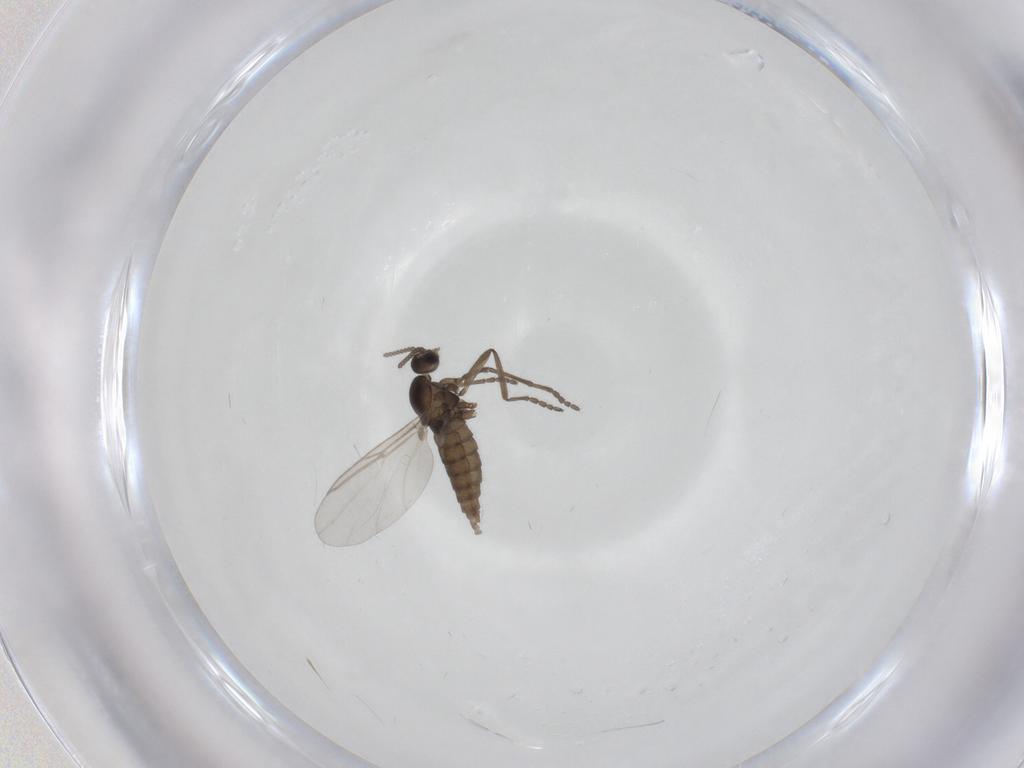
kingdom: Animalia
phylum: Arthropoda
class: Insecta
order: Diptera
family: Cecidomyiidae
